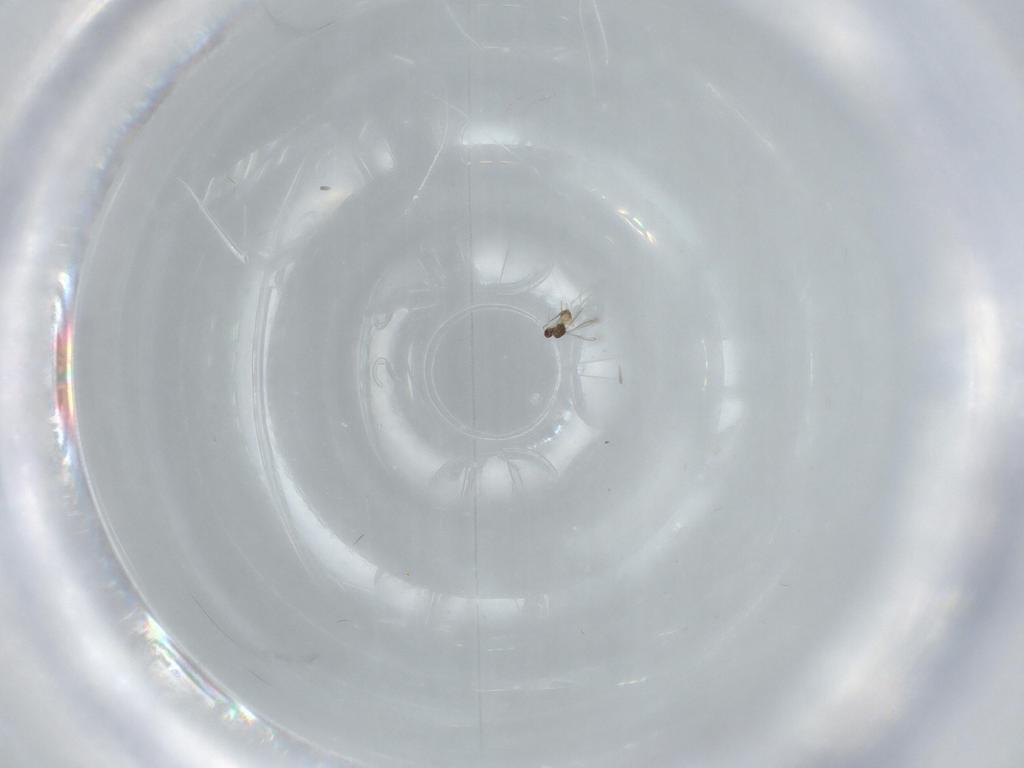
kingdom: Animalia
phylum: Arthropoda
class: Insecta
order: Hymenoptera
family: Mymaridae
